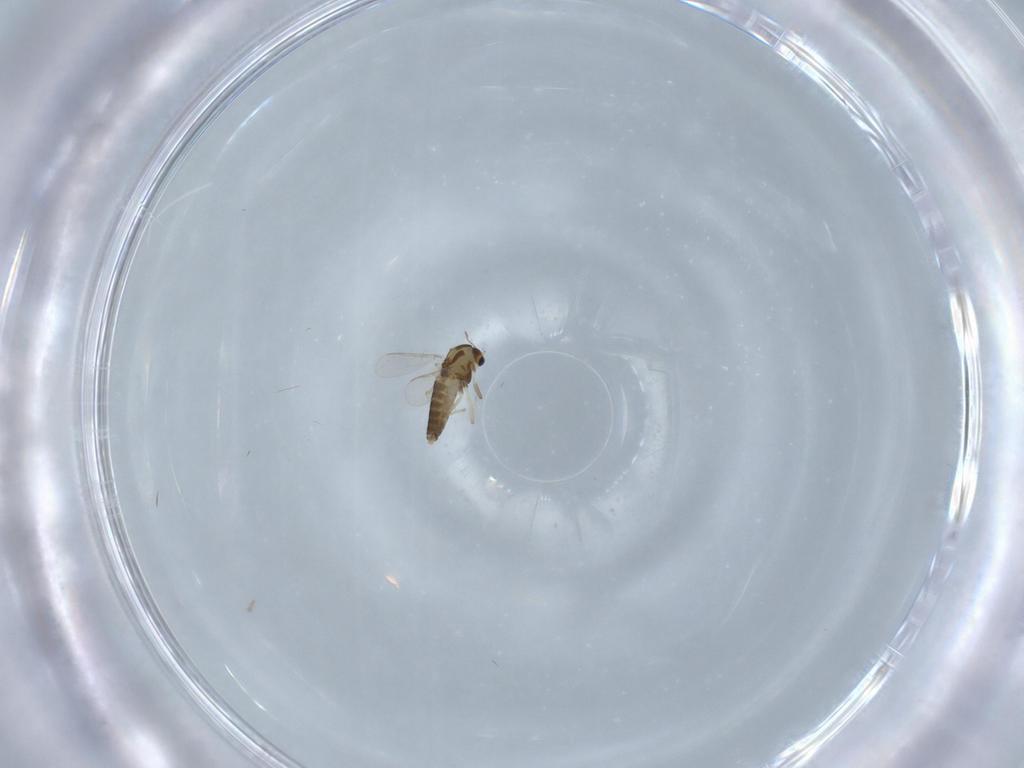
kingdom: Animalia
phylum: Arthropoda
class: Insecta
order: Diptera
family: Chironomidae
